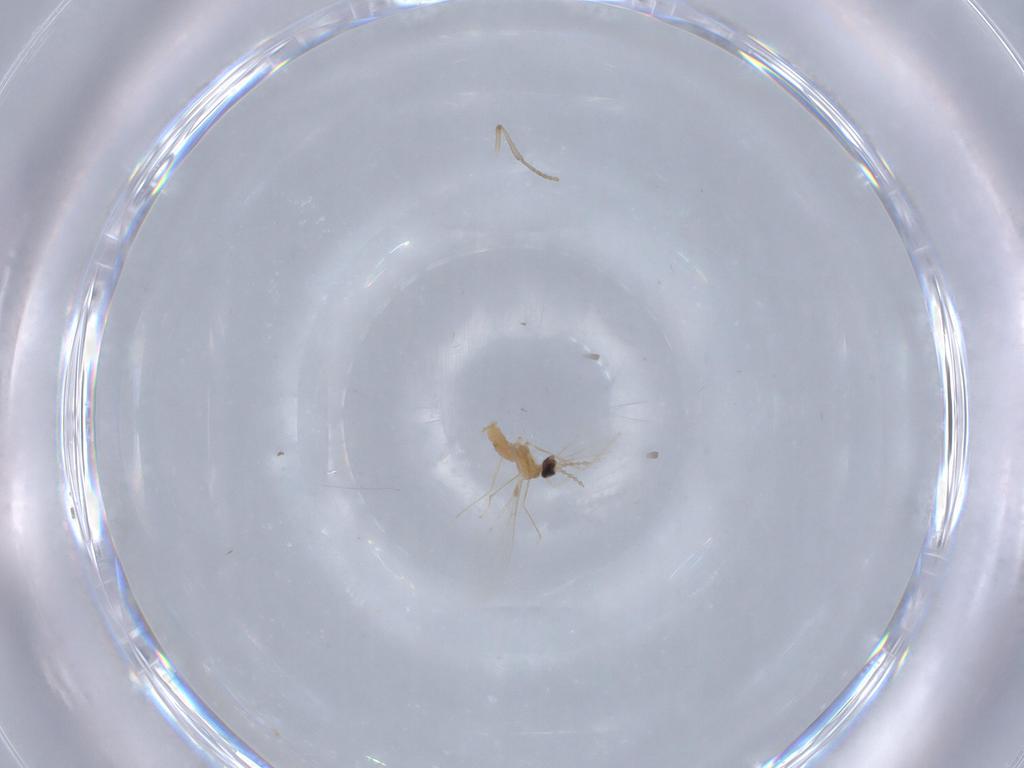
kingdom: Animalia
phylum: Arthropoda
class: Insecta
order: Diptera
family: Cecidomyiidae
